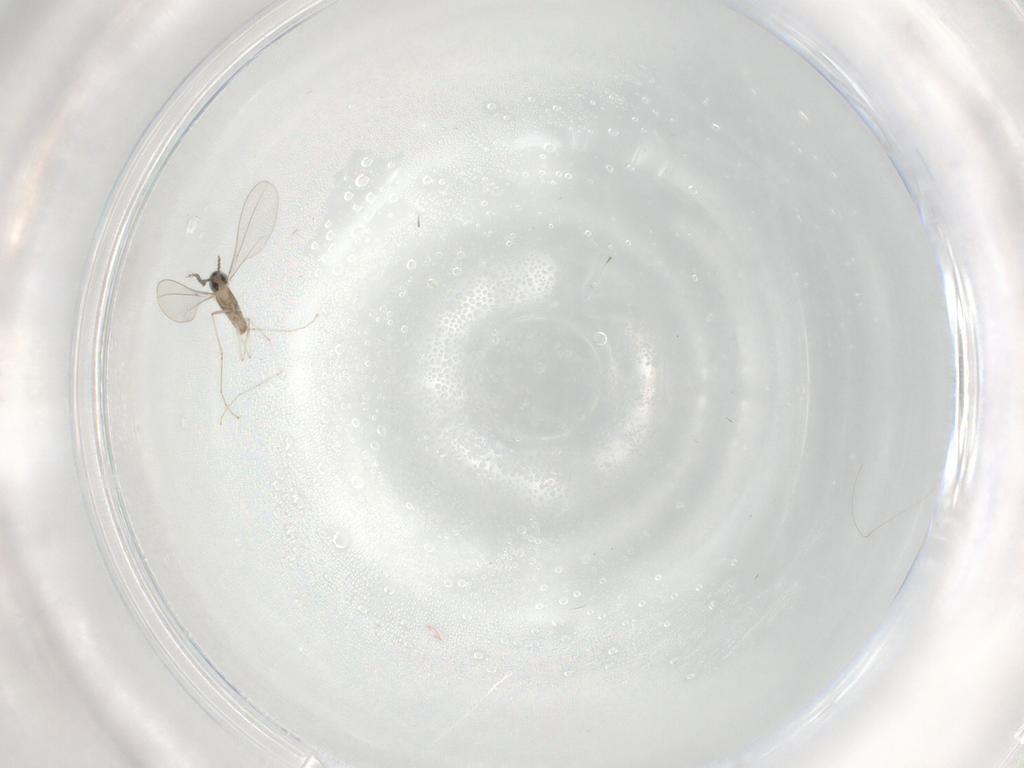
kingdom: Animalia
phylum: Arthropoda
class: Insecta
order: Diptera
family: Cecidomyiidae
